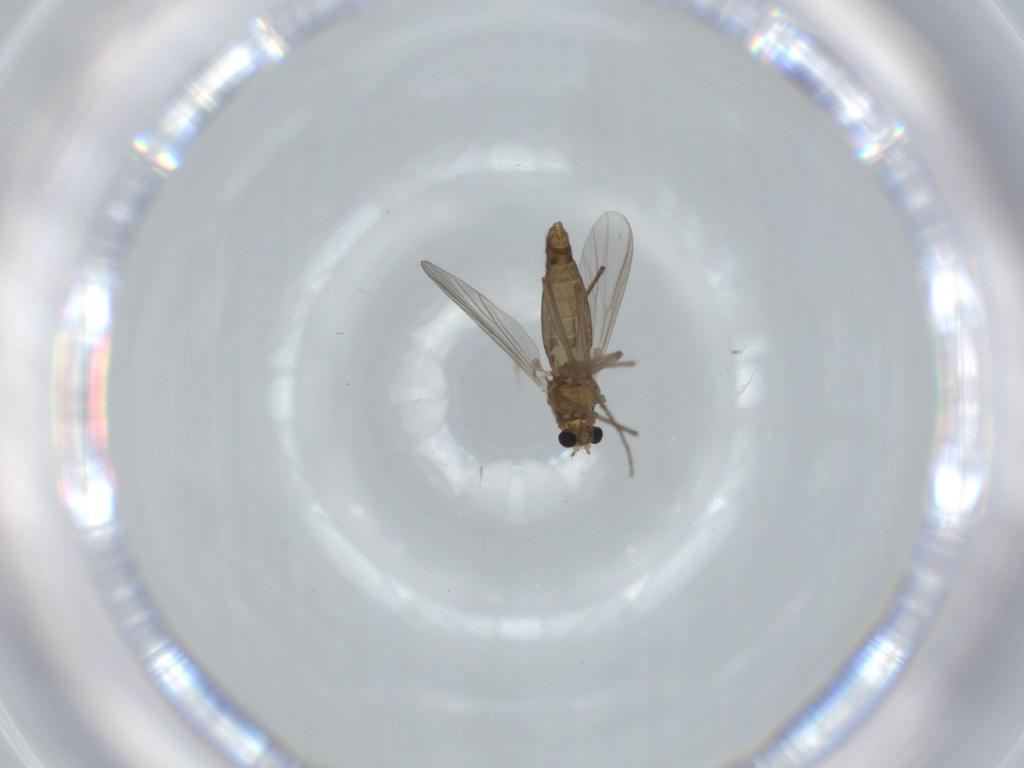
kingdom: Animalia
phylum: Arthropoda
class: Insecta
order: Diptera
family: Chironomidae
